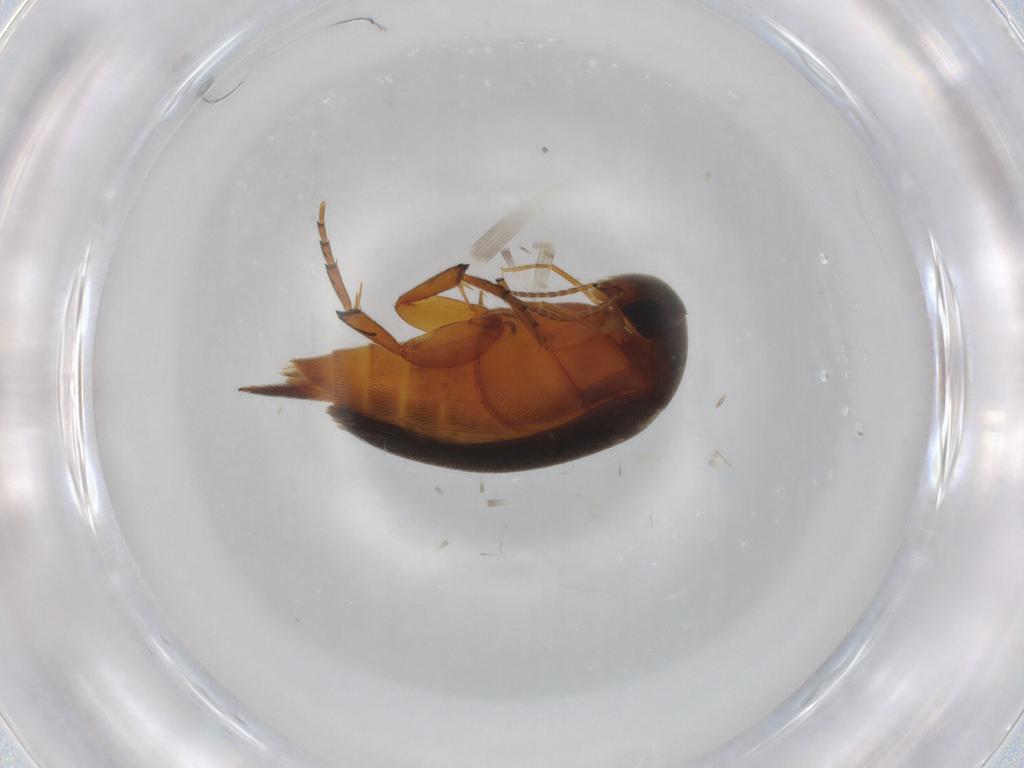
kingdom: Animalia
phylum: Arthropoda
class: Insecta
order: Coleoptera
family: Mordellidae
